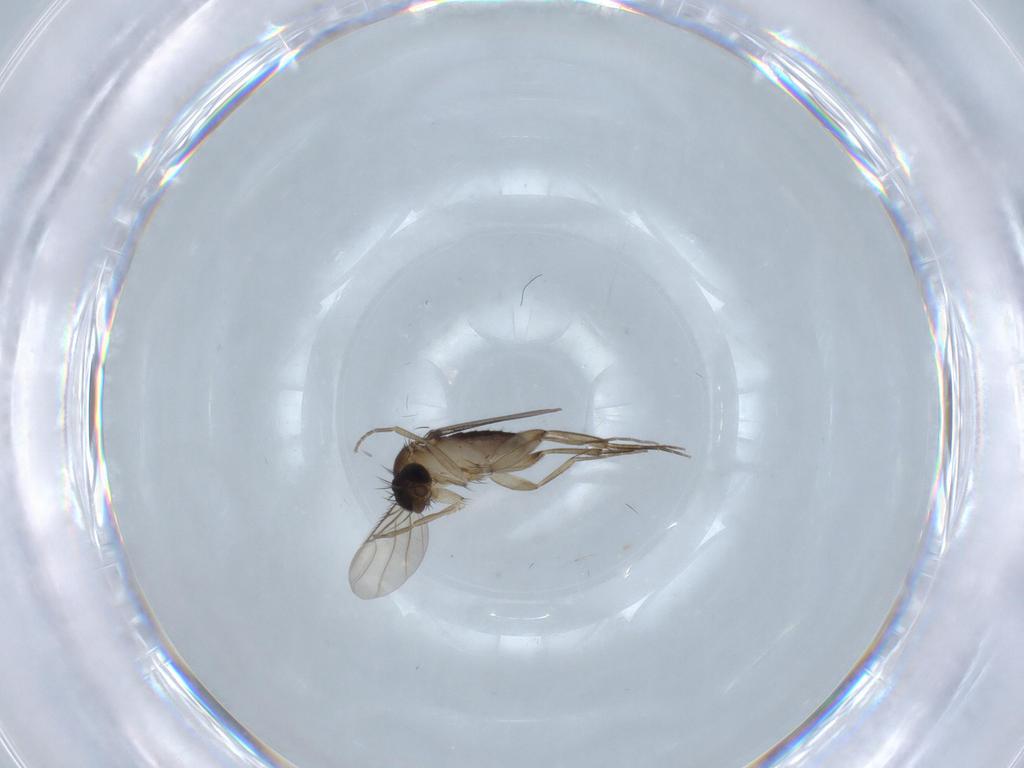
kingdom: Animalia
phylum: Arthropoda
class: Insecta
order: Diptera
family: Phoridae
